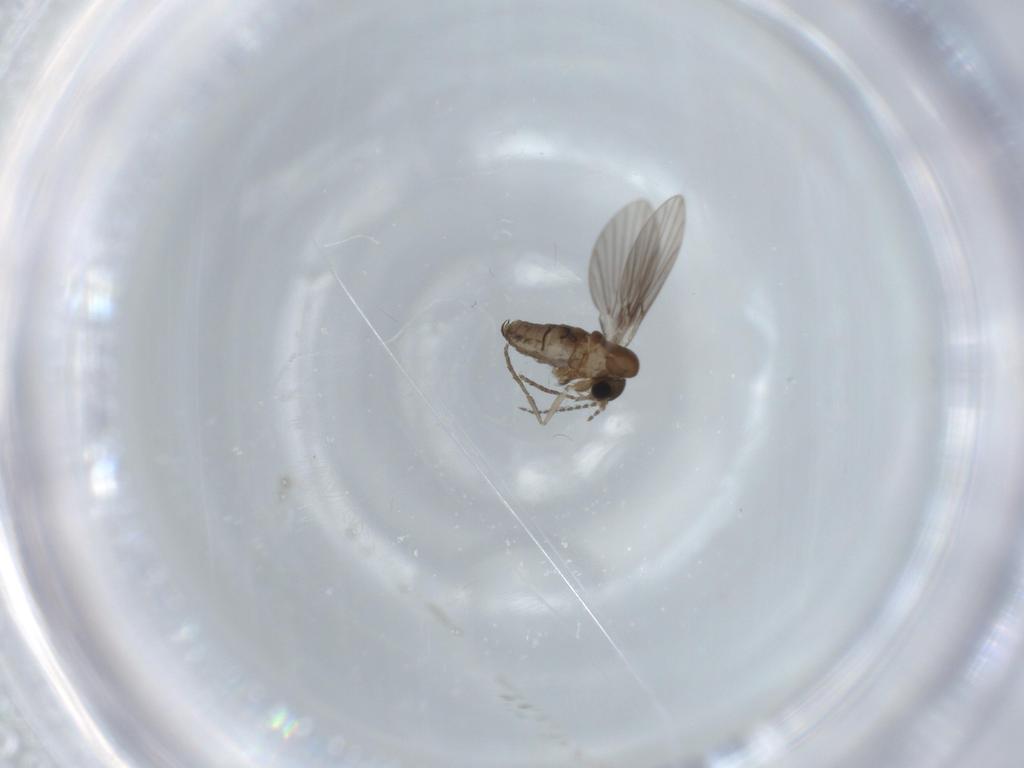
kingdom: Animalia
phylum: Arthropoda
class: Insecta
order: Diptera
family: Psychodidae
